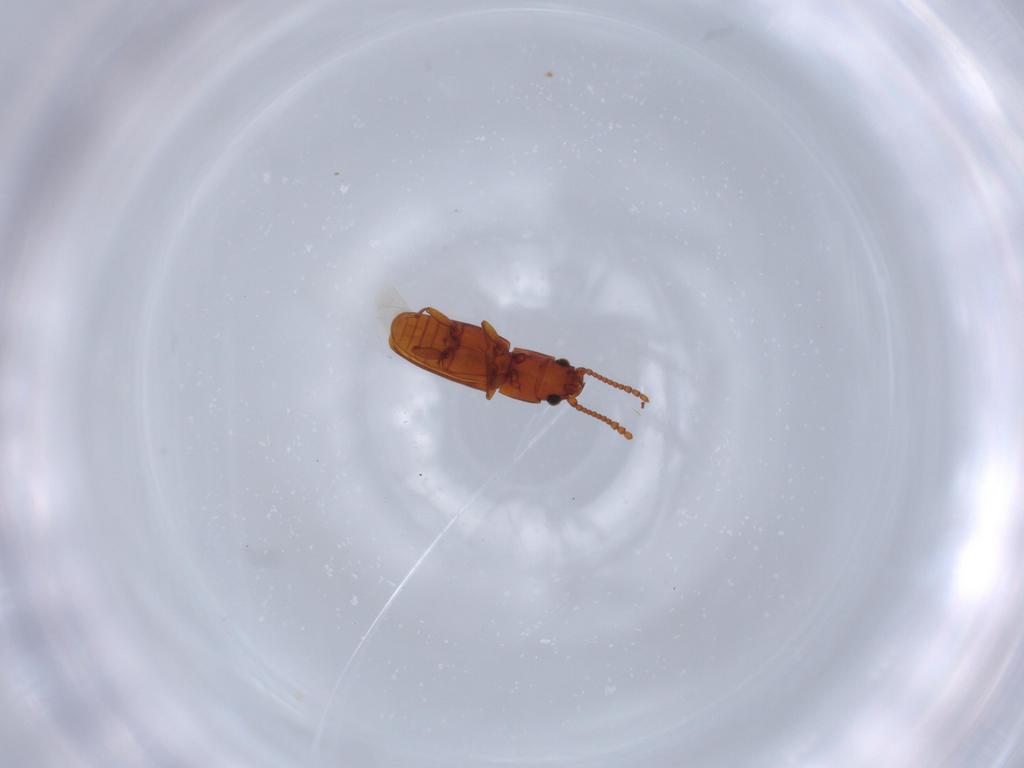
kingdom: Animalia
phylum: Arthropoda
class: Insecta
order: Coleoptera
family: Laemophloeidae
